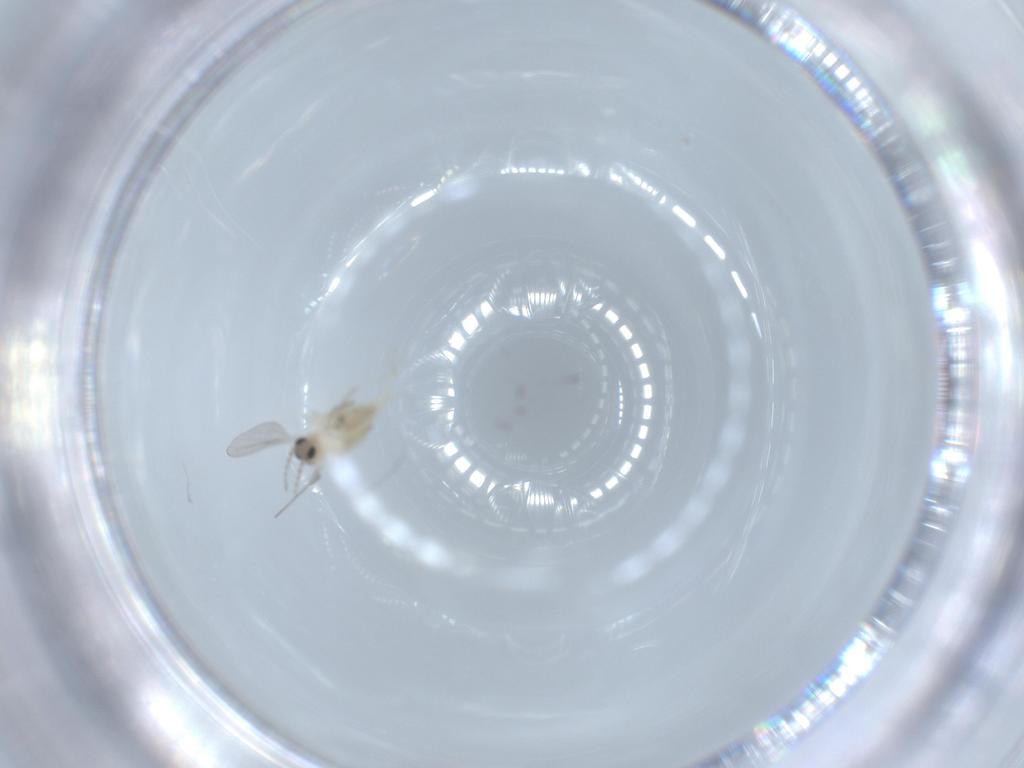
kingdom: Animalia
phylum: Arthropoda
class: Insecta
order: Diptera
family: Cecidomyiidae
